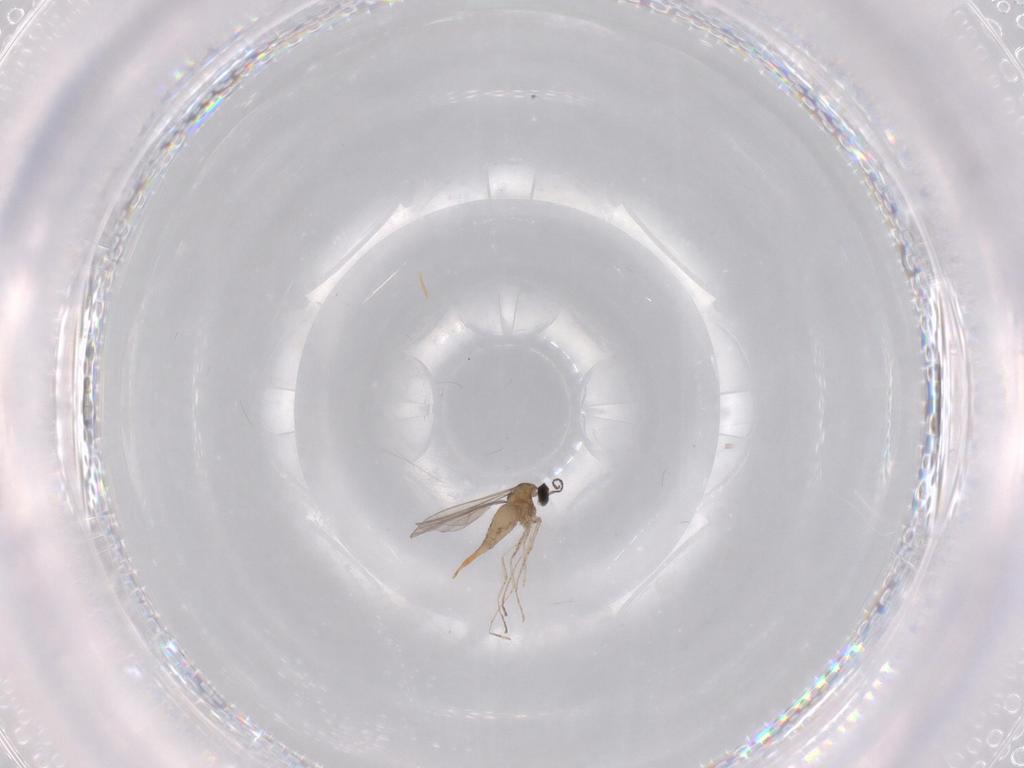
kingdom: Animalia
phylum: Arthropoda
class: Insecta
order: Diptera
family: Cecidomyiidae
